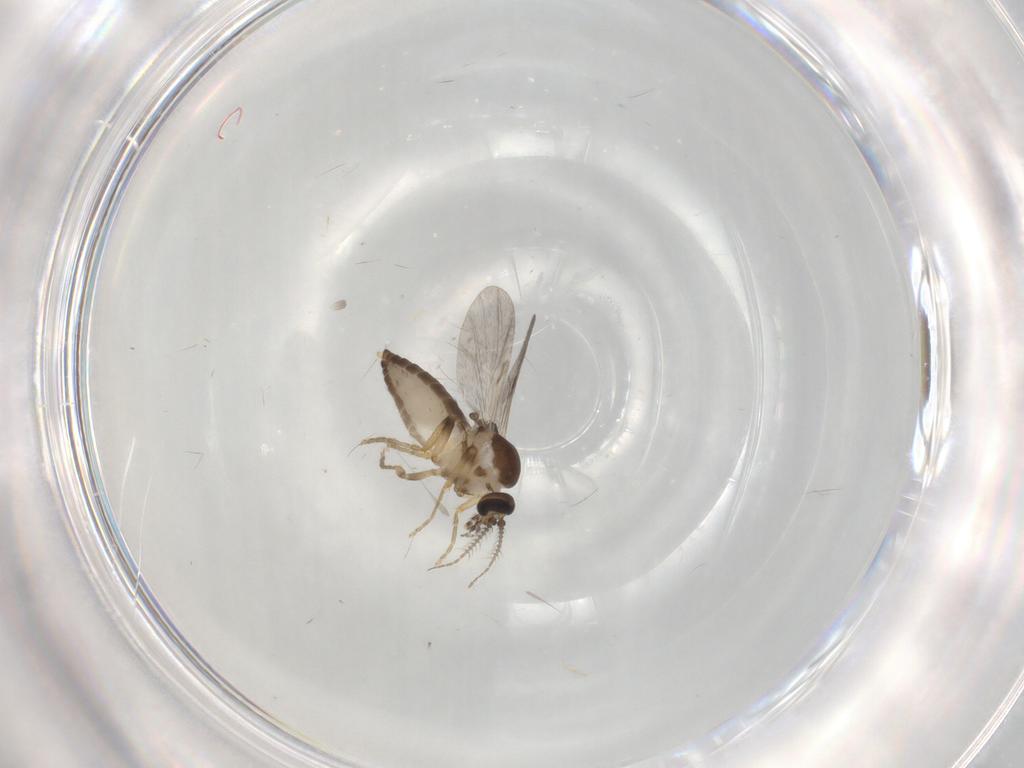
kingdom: Animalia
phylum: Arthropoda
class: Insecta
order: Diptera
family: Ceratopogonidae
